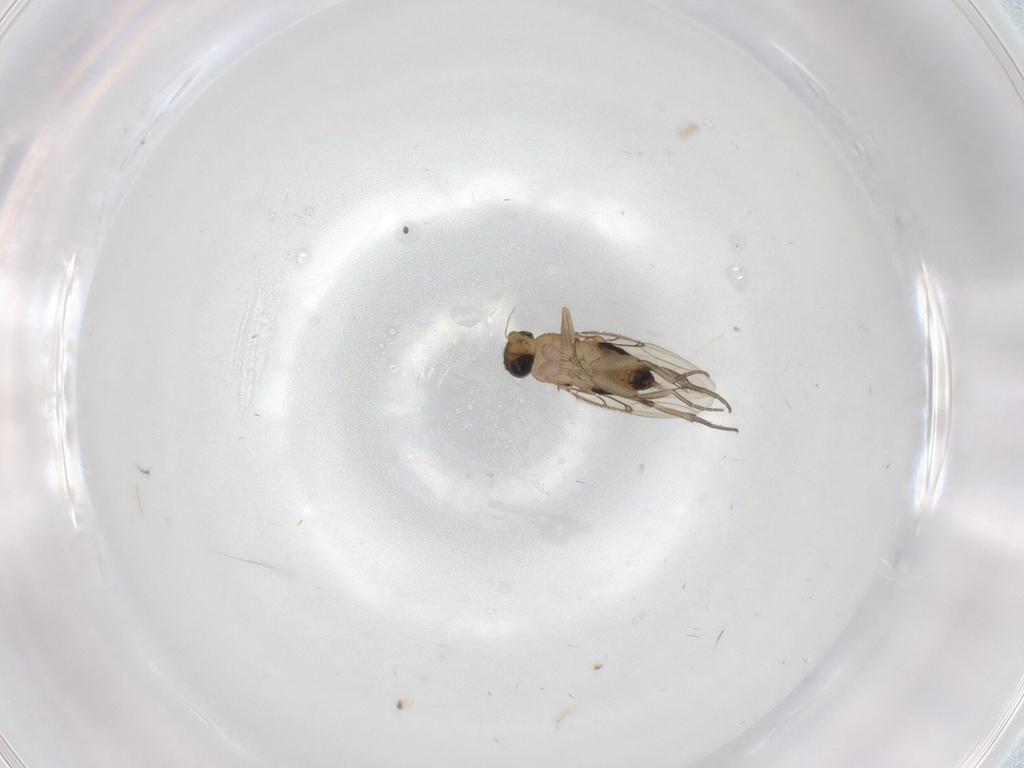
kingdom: Animalia
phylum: Arthropoda
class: Insecta
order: Diptera
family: Phoridae
